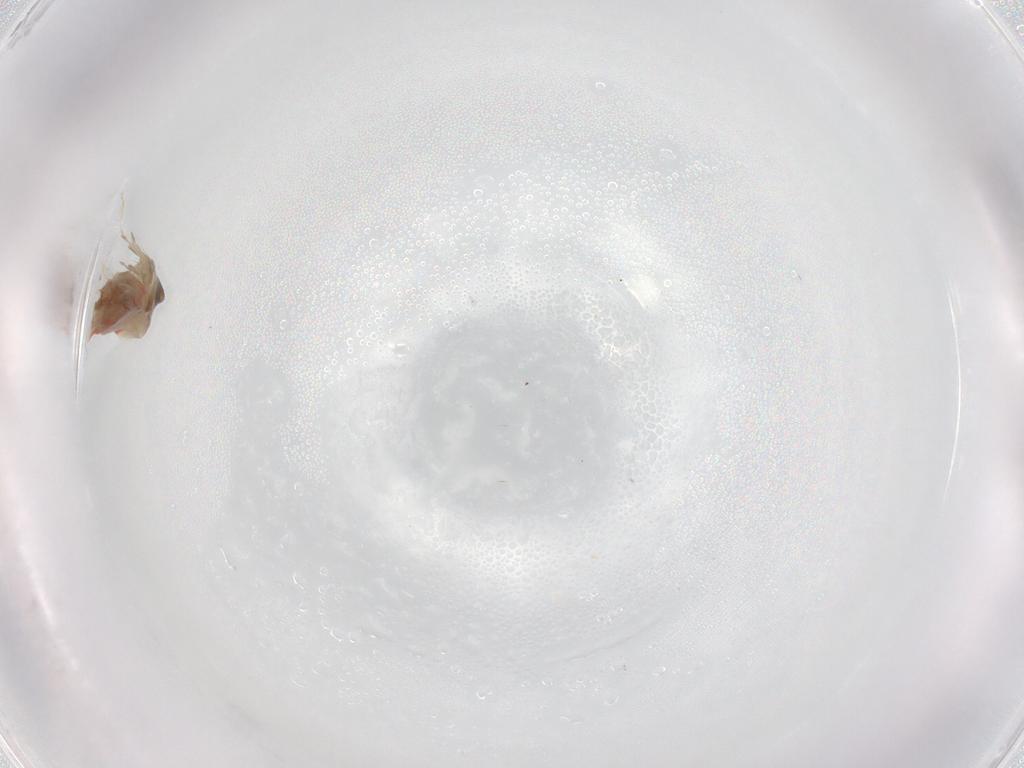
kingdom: Animalia
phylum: Arthropoda
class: Insecta
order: Hemiptera
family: Aleyrodidae
